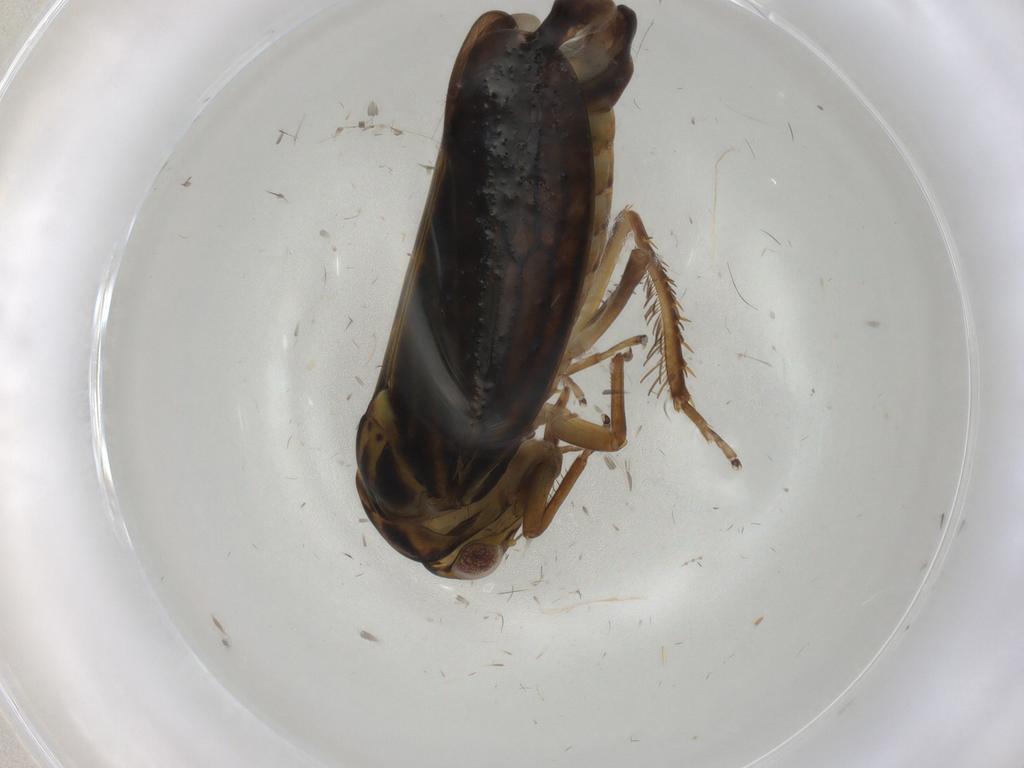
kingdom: Animalia
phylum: Arthropoda
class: Insecta
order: Hemiptera
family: Cicadellidae
